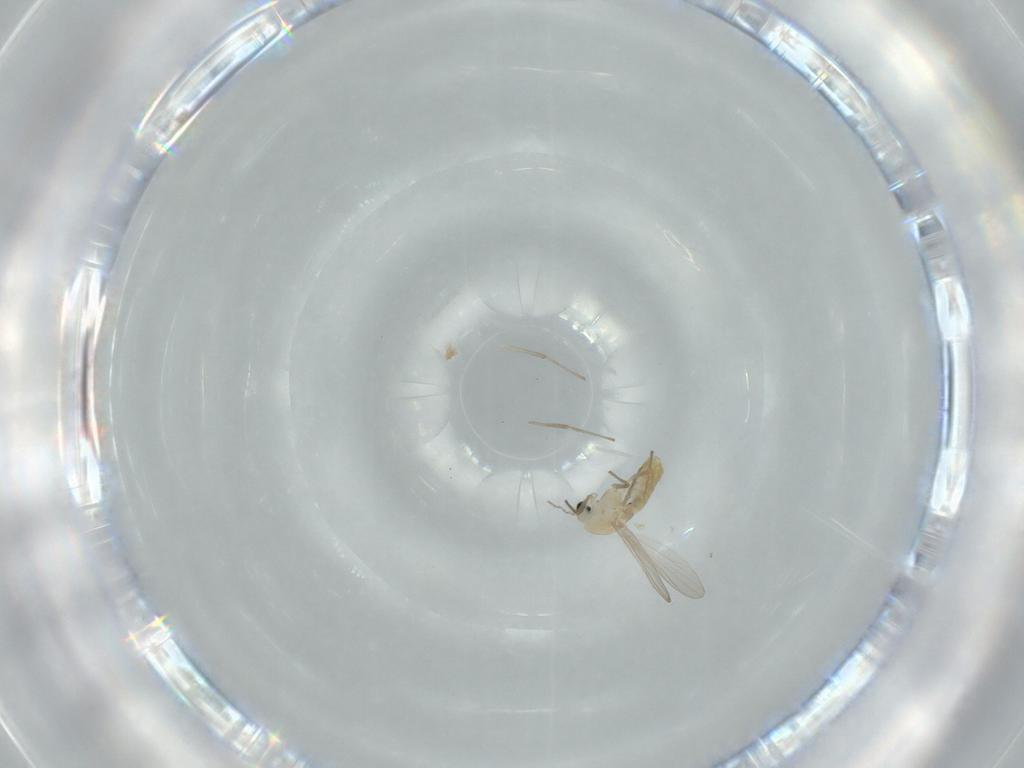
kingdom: Animalia
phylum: Arthropoda
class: Insecta
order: Diptera
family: Chironomidae
